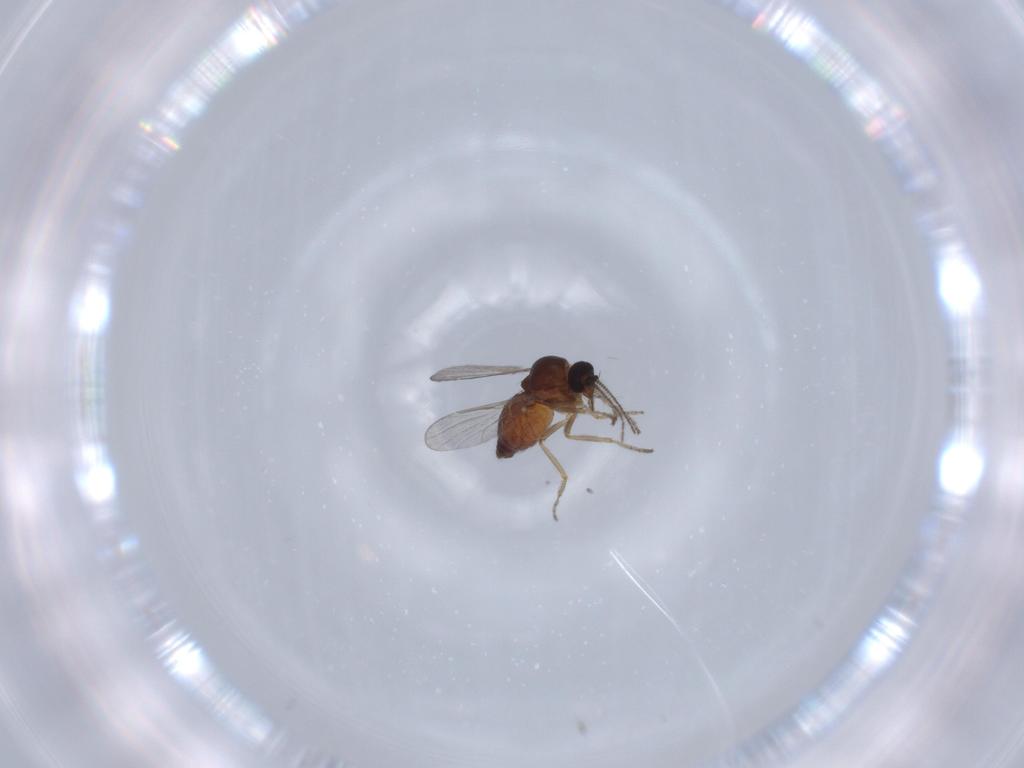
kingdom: Animalia
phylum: Arthropoda
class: Insecta
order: Diptera
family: Ceratopogonidae
